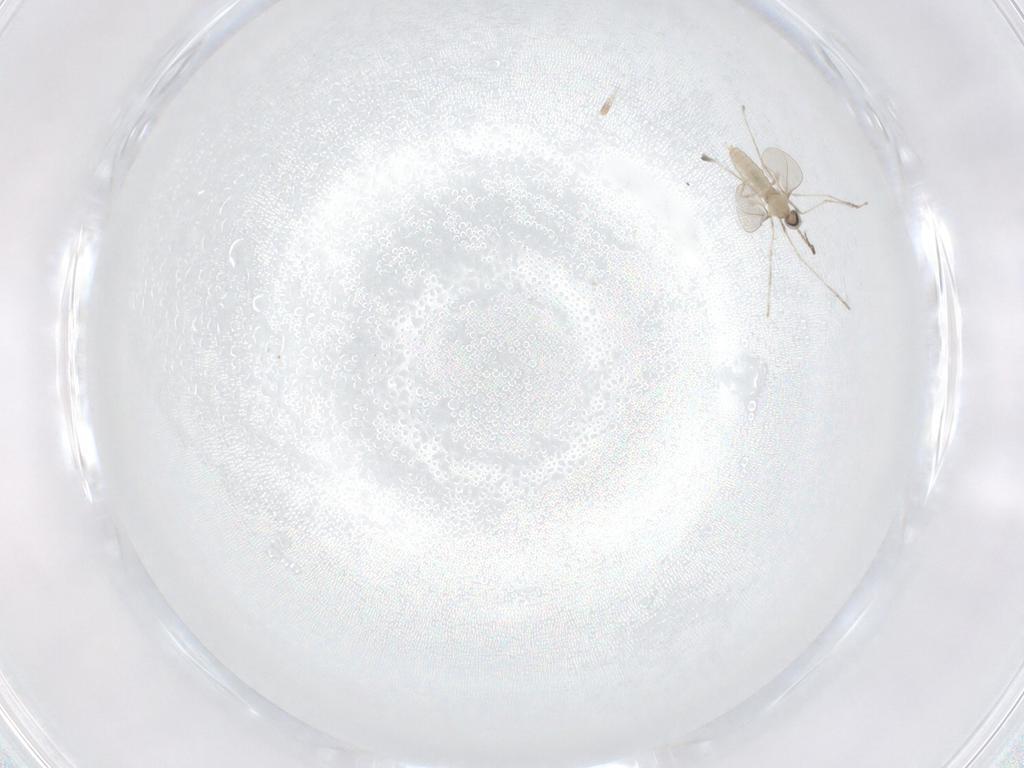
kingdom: Animalia
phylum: Arthropoda
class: Insecta
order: Diptera
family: Cecidomyiidae
